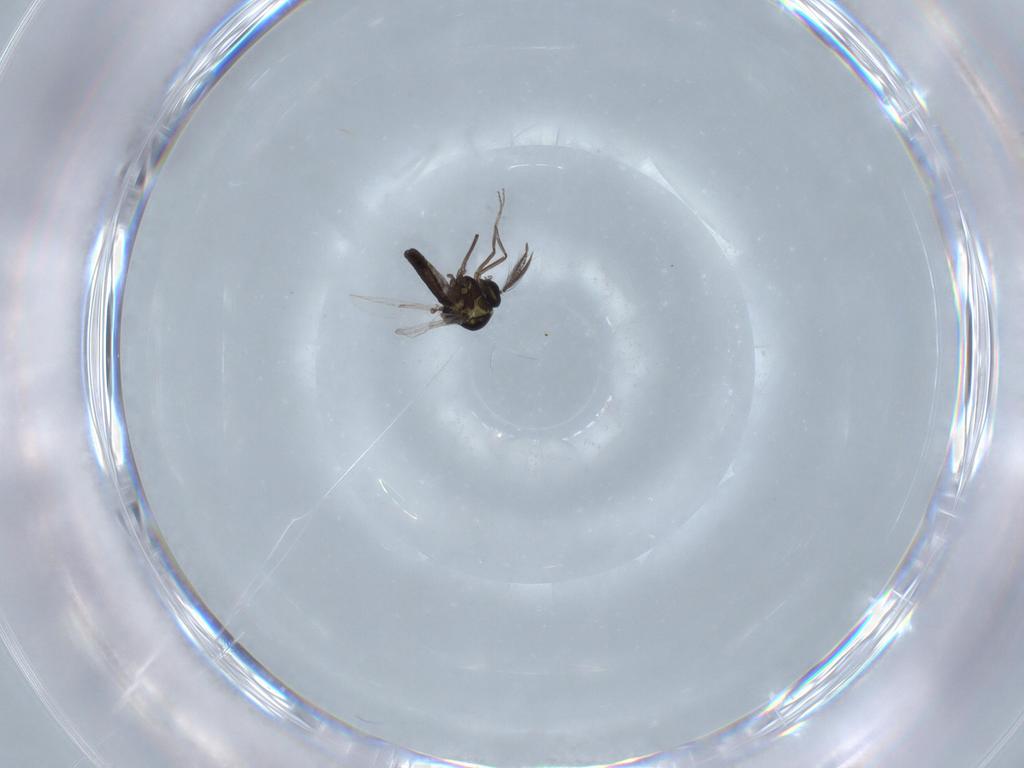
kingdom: Animalia
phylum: Arthropoda
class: Insecta
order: Diptera
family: Ceratopogonidae
